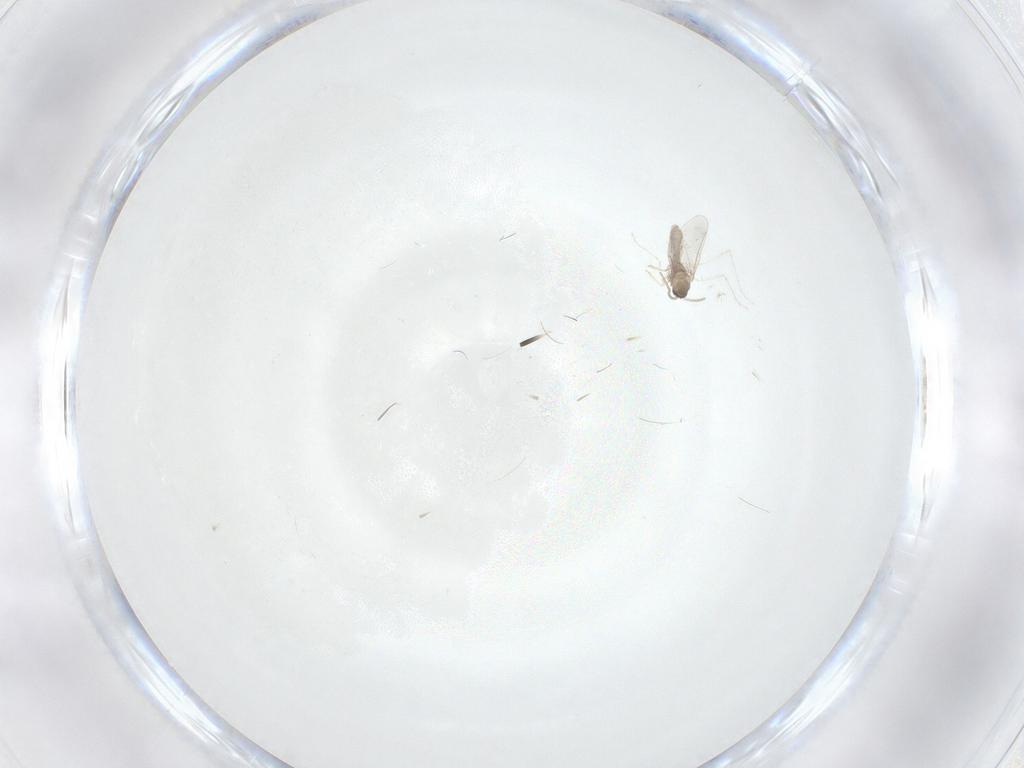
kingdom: Animalia
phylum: Arthropoda
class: Insecta
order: Diptera
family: Cecidomyiidae
